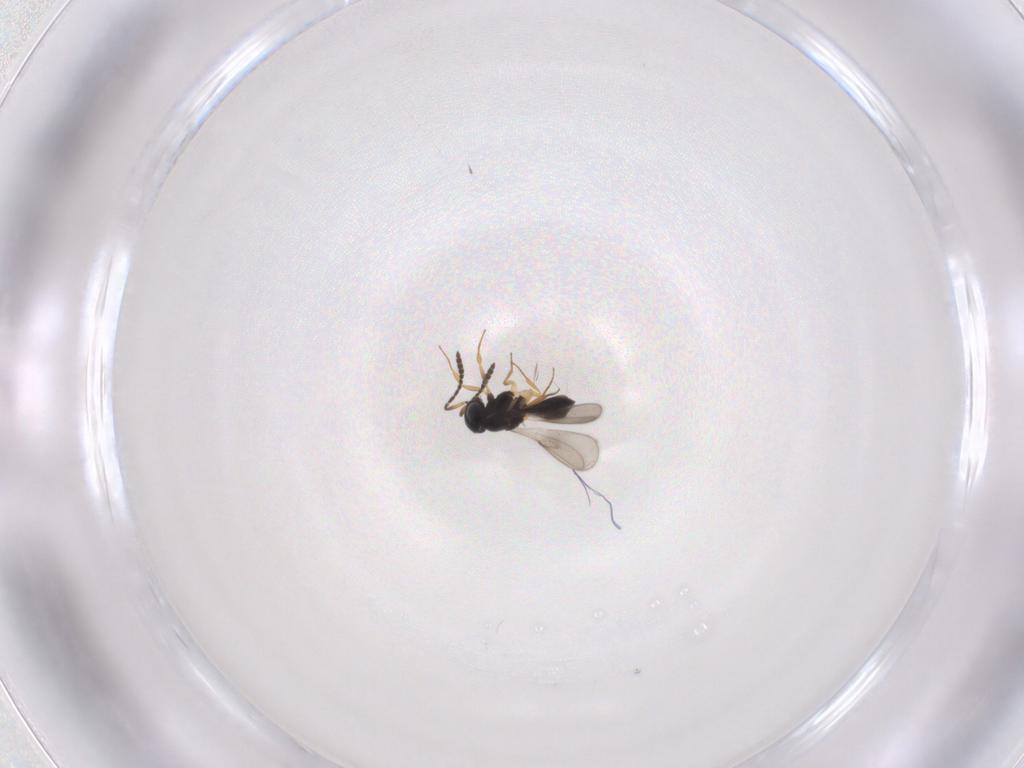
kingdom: Animalia
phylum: Arthropoda
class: Insecta
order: Hymenoptera
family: Scelionidae
